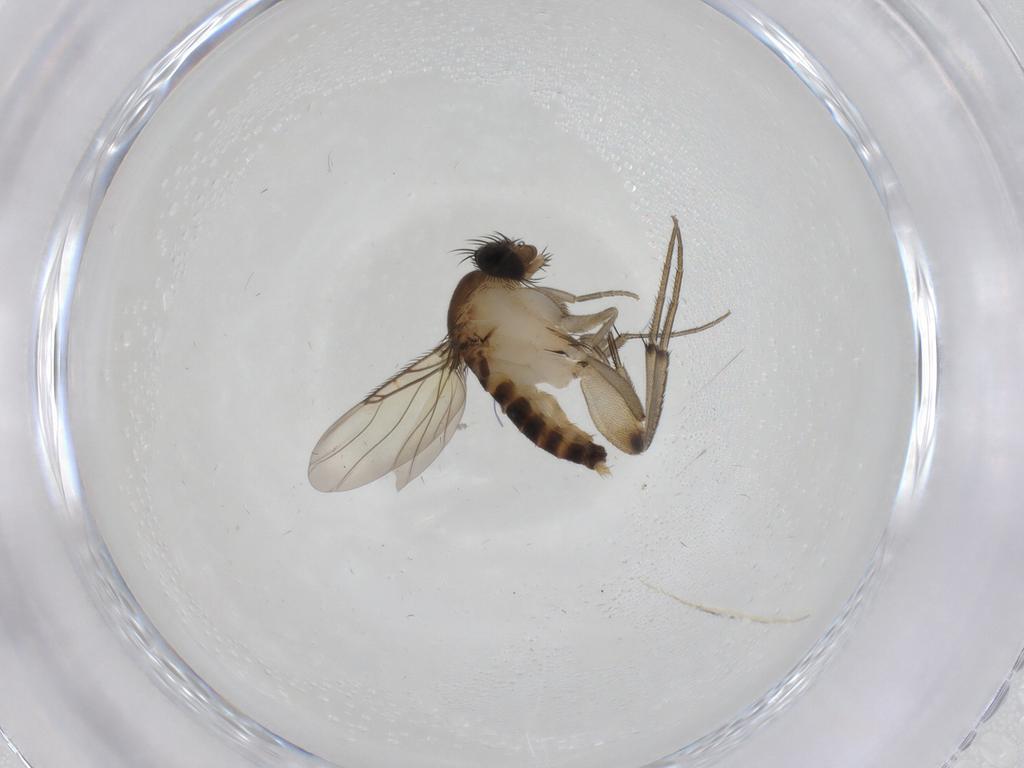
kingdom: Animalia
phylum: Arthropoda
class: Insecta
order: Diptera
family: Phoridae
